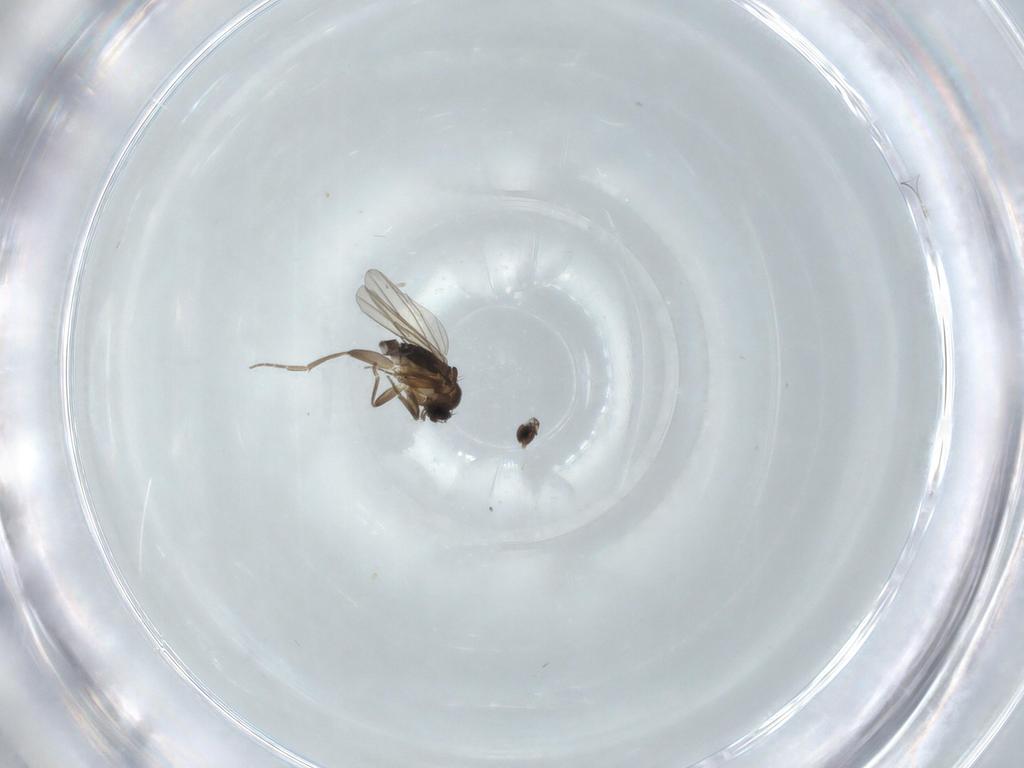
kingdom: Animalia
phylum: Arthropoda
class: Insecta
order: Diptera
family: Phoridae
